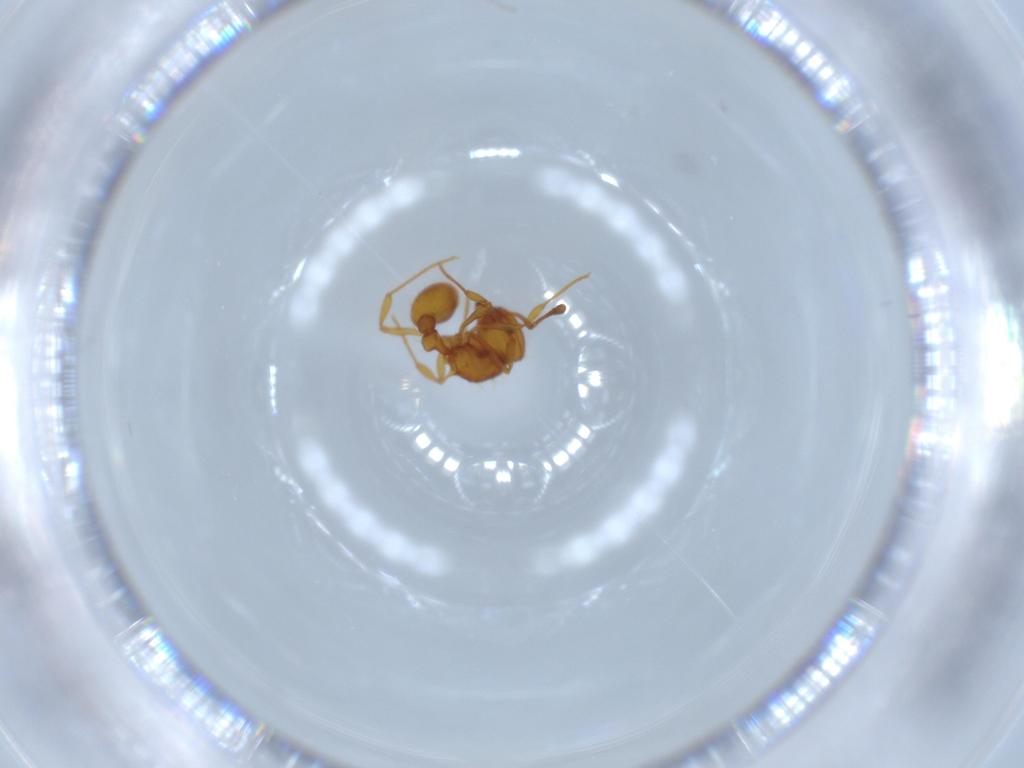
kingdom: Animalia
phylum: Arthropoda
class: Insecta
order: Hymenoptera
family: Formicidae
